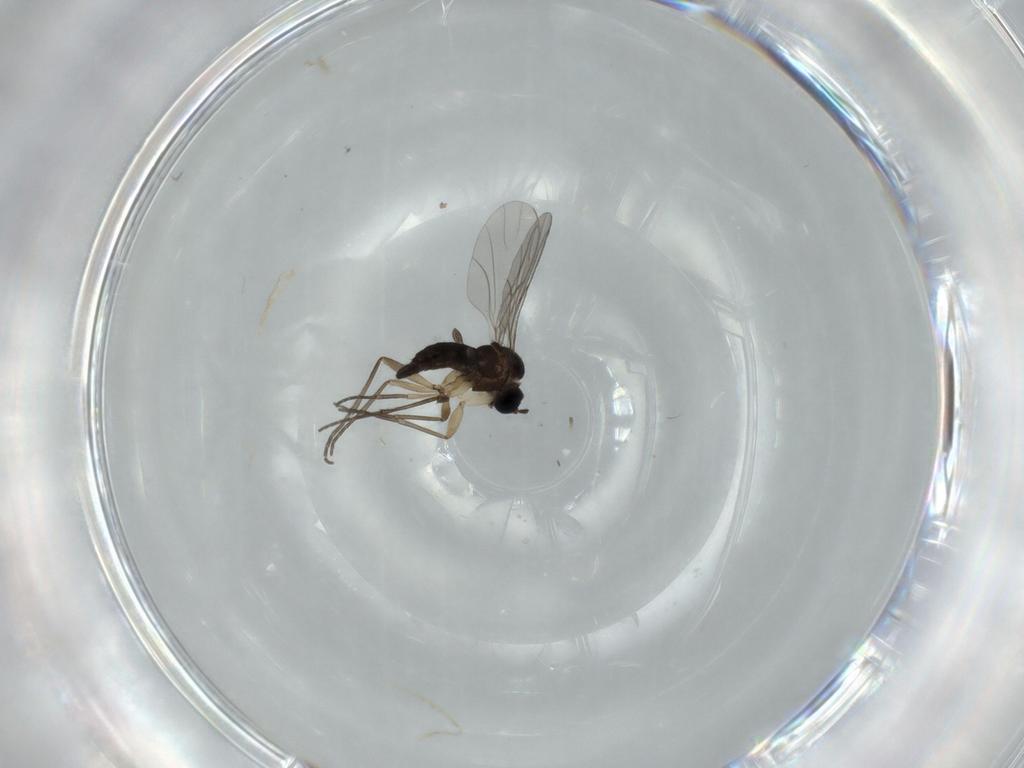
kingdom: Animalia
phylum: Arthropoda
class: Insecta
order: Diptera
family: Sciaridae
